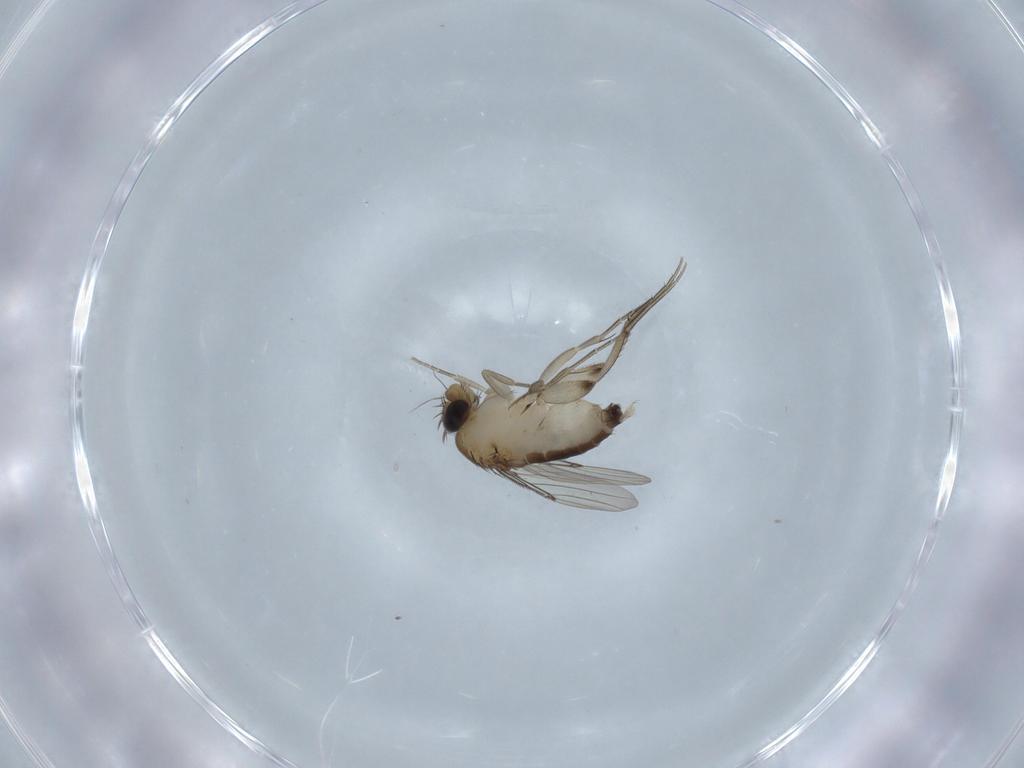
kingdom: Animalia
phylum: Arthropoda
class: Insecta
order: Diptera
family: Phoridae
